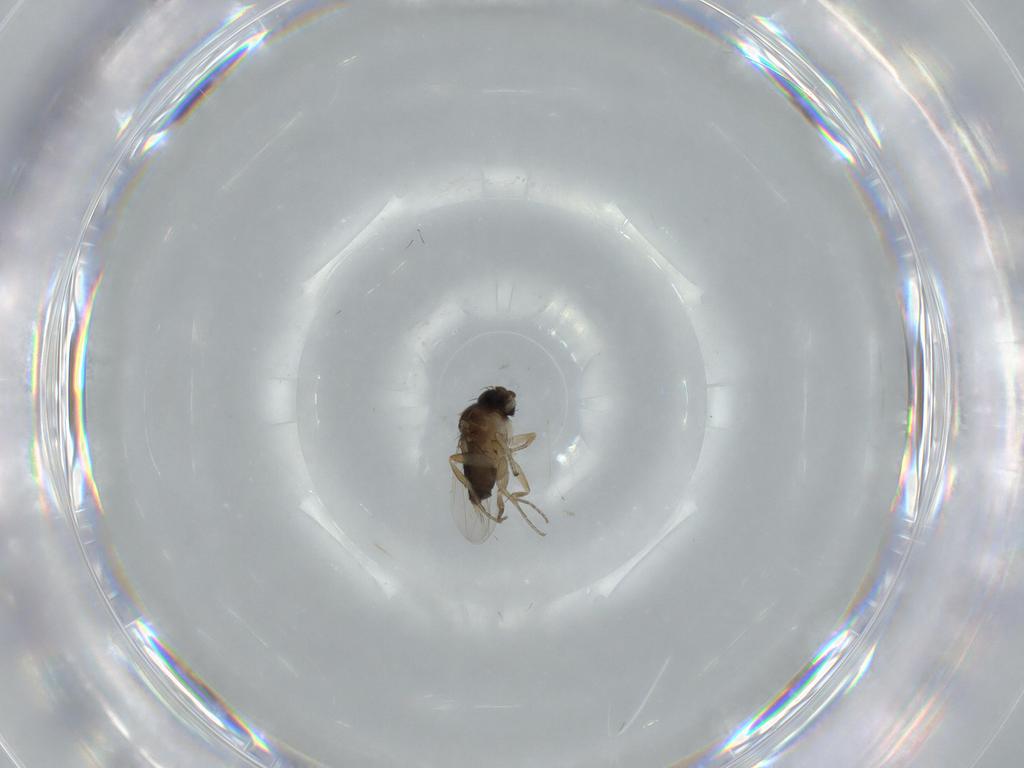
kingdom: Animalia
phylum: Arthropoda
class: Insecta
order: Diptera
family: Phoridae
